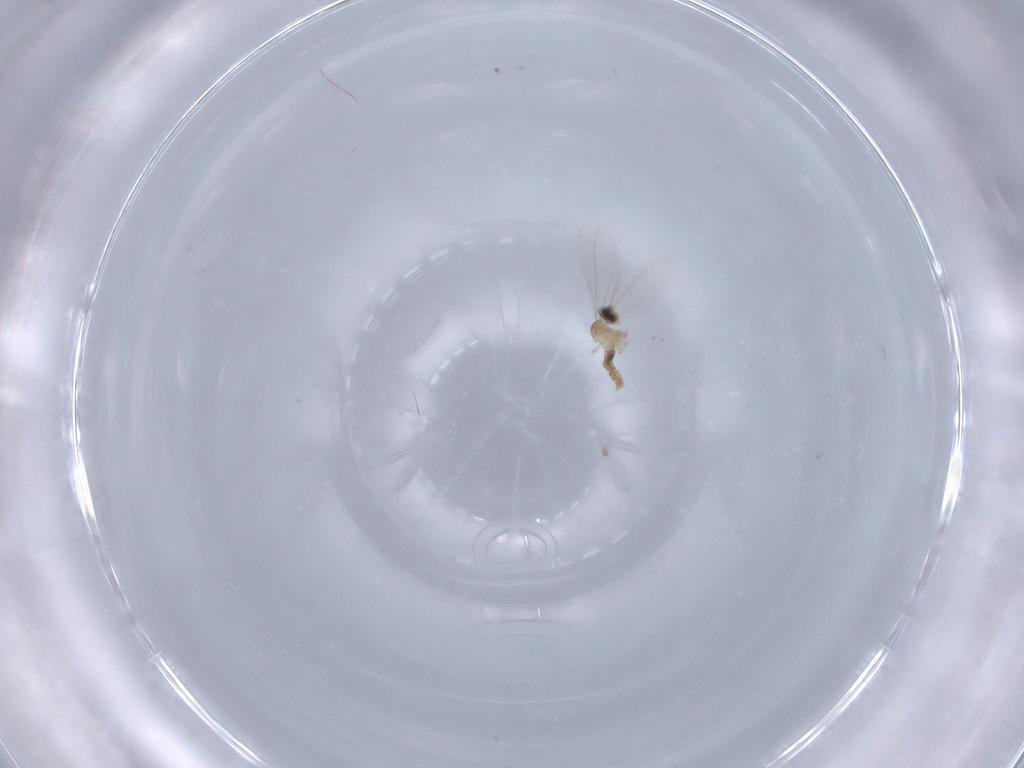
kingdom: Animalia
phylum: Arthropoda
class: Insecta
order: Diptera
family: Cecidomyiidae
